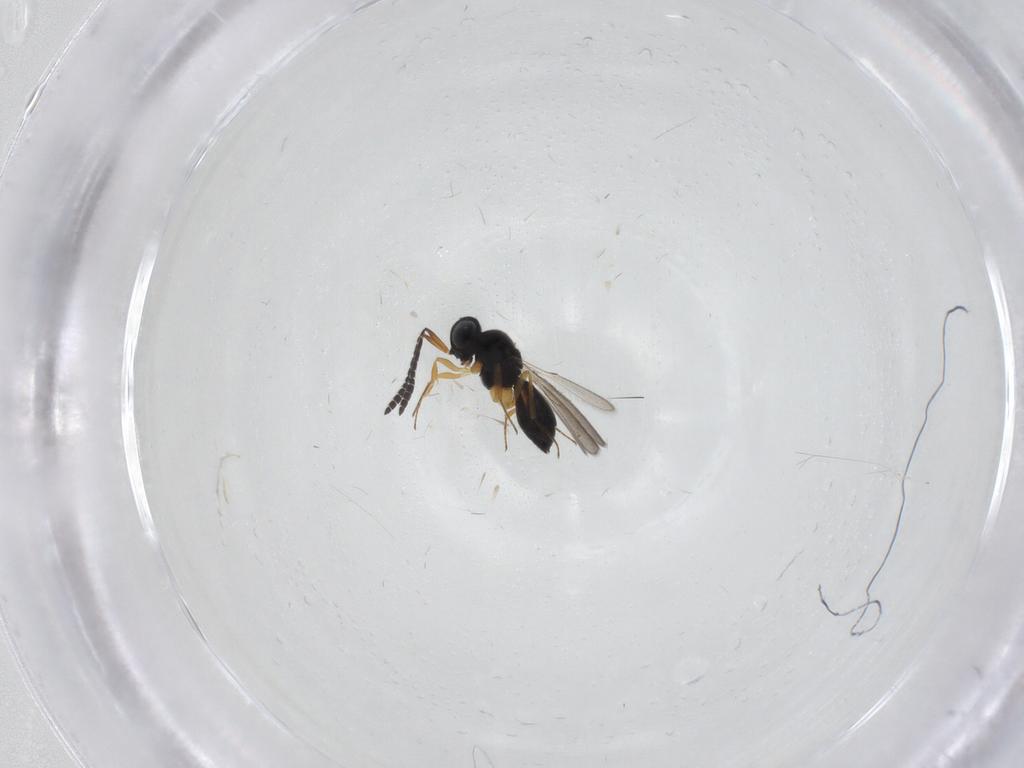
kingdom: Animalia
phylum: Arthropoda
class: Insecta
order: Hymenoptera
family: Scelionidae
